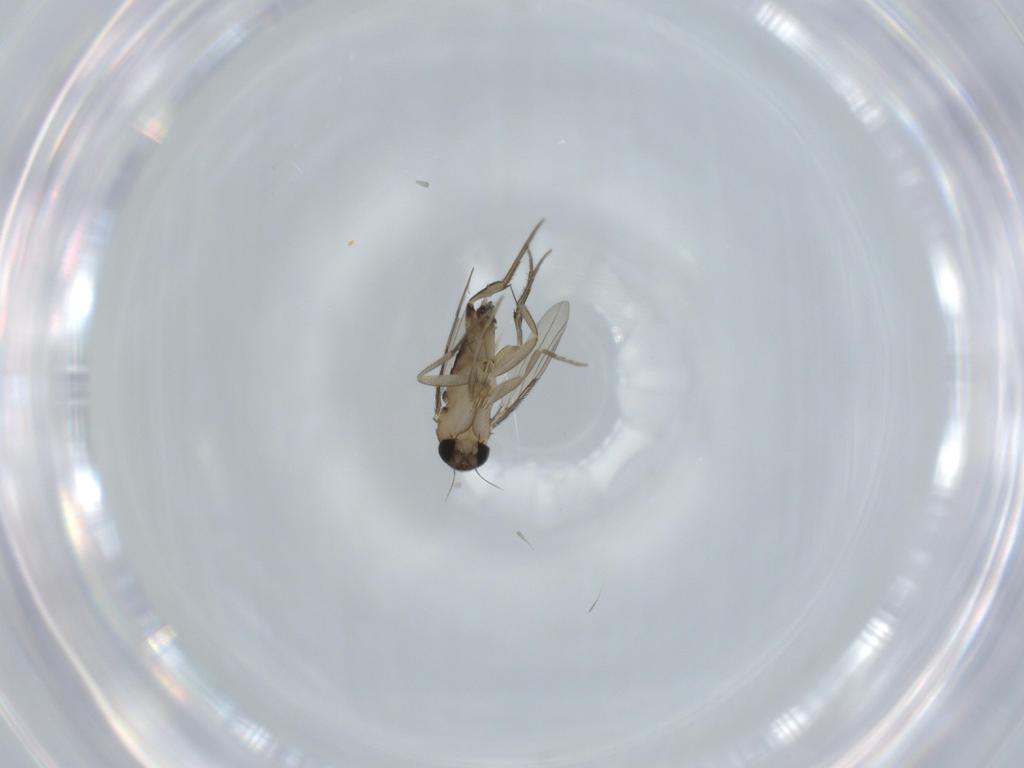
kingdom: Animalia
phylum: Arthropoda
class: Insecta
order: Diptera
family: Phoridae
